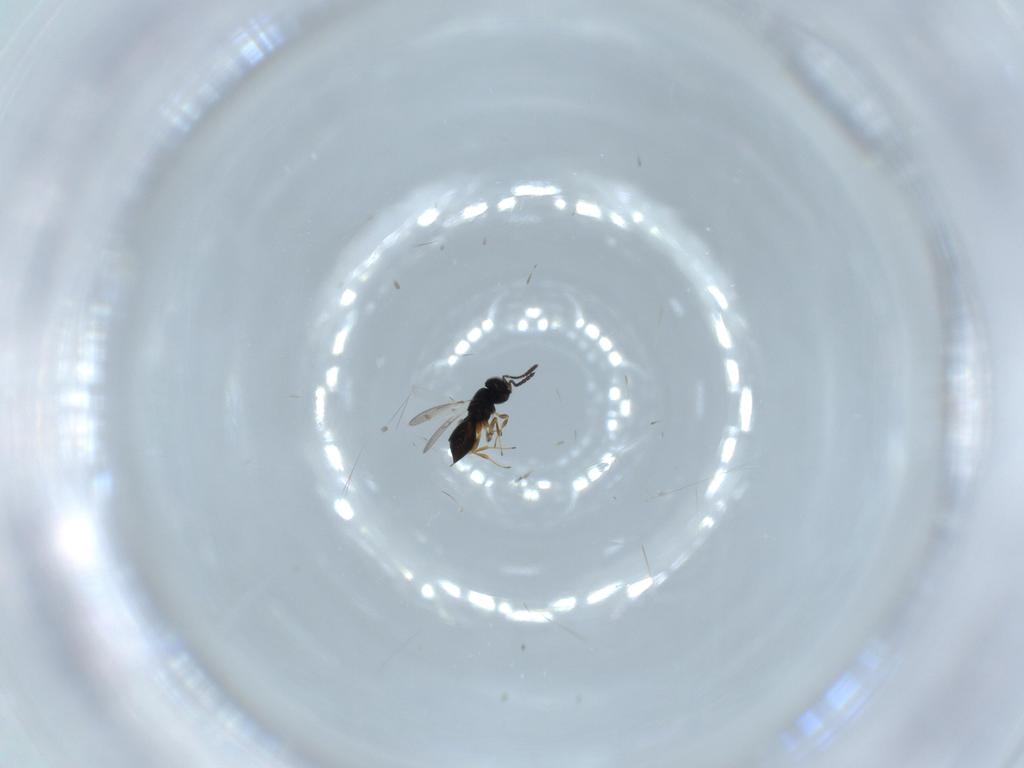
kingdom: Animalia
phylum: Arthropoda
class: Insecta
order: Hymenoptera
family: Scelionidae
